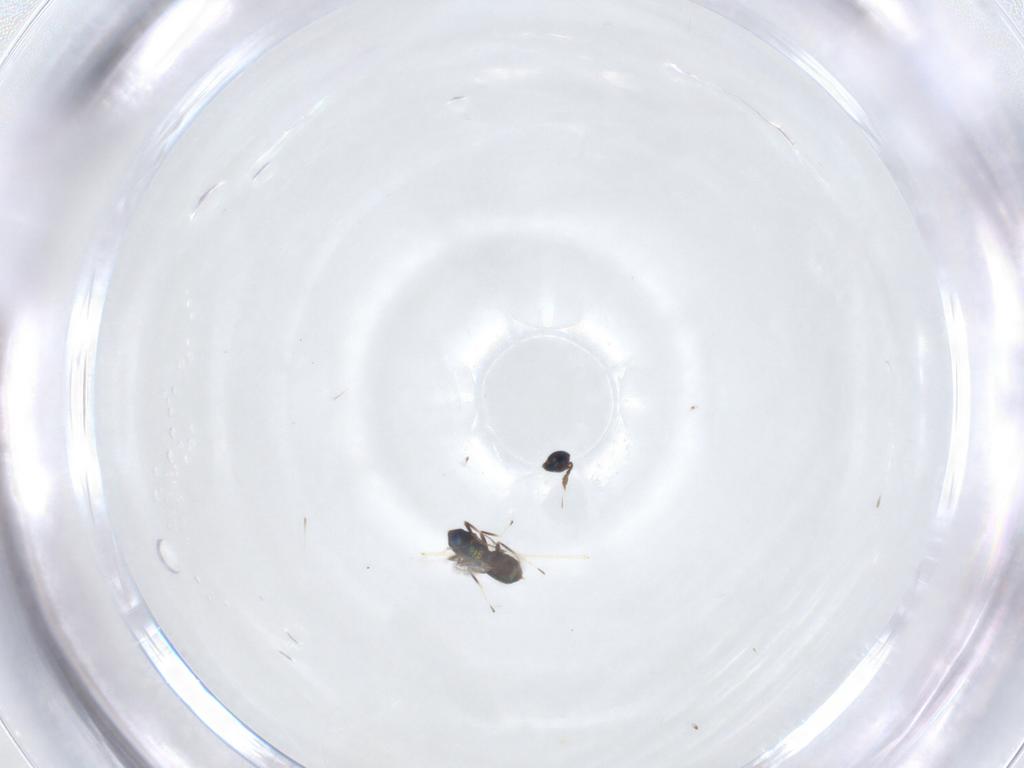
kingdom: Animalia
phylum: Arthropoda
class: Insecta
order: Hymenoptera
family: Eulophidae
